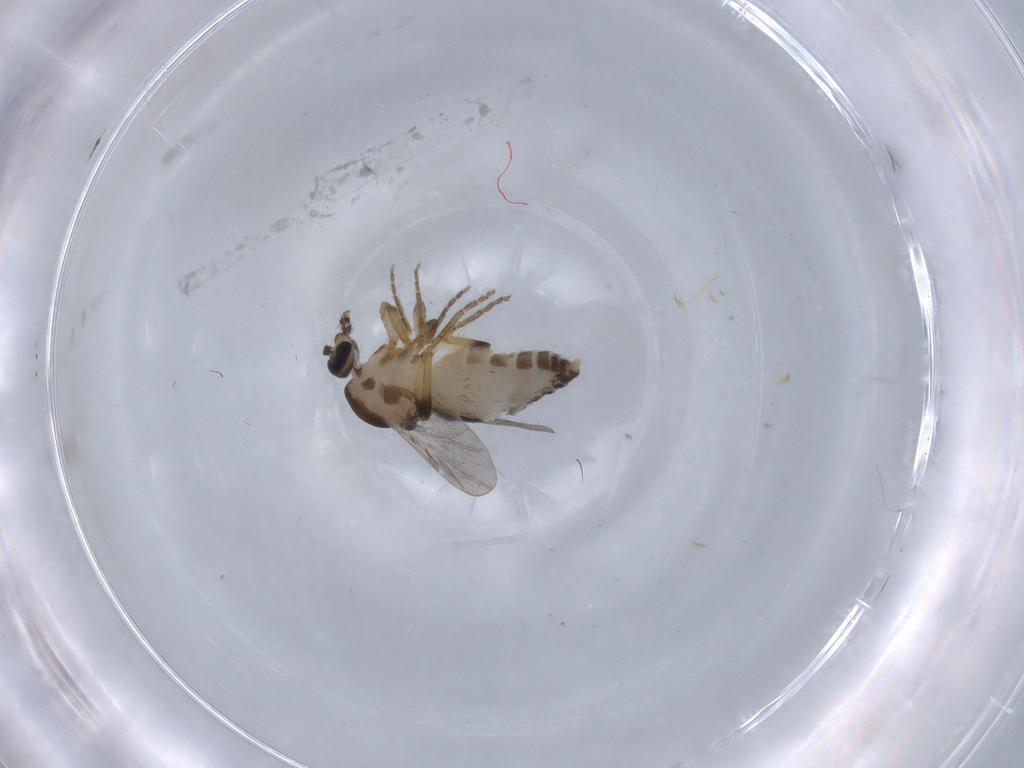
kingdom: Animalia
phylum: Arthropoda
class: Insecta
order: Diptera
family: Ceratopogonidae
